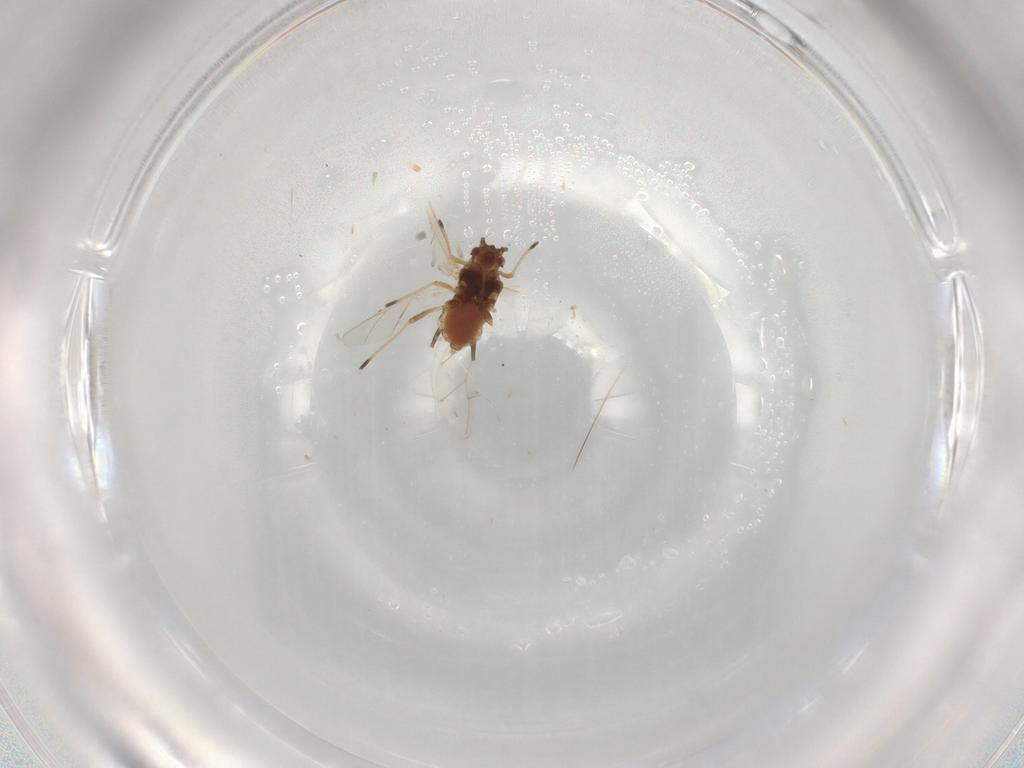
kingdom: Animalia
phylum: Arthropoda
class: Insecta
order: Hemiptera
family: Aphididae
